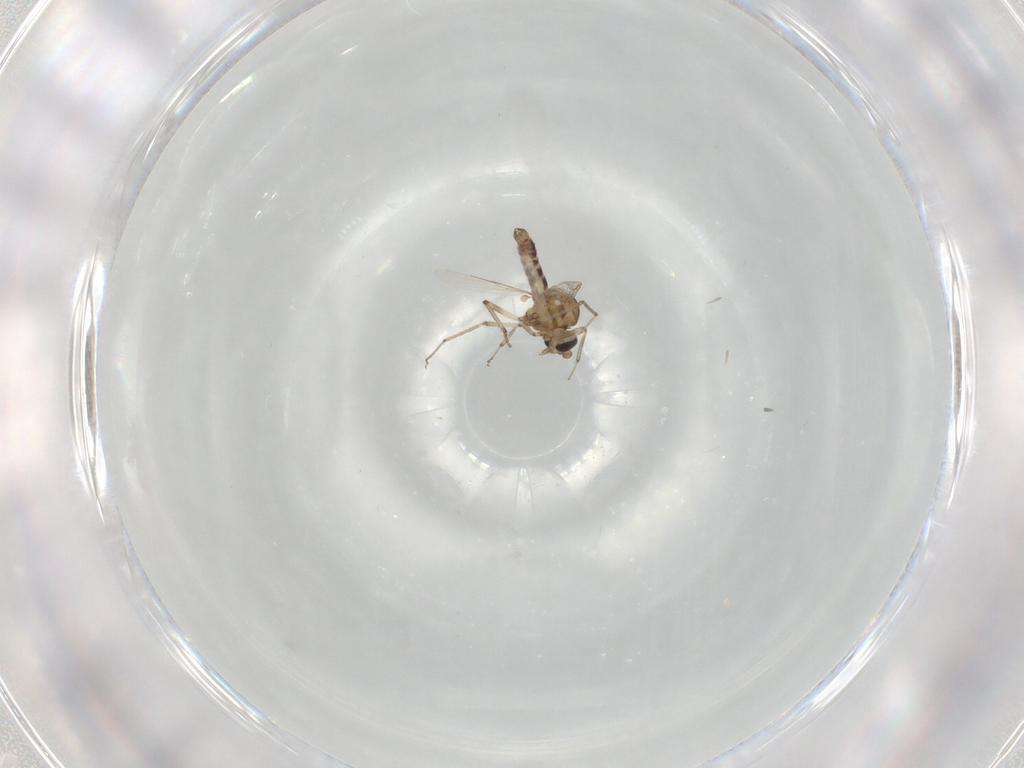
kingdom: Animalia
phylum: Arthropoda
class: Insecta
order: Diptera
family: Ceratopogonidae
